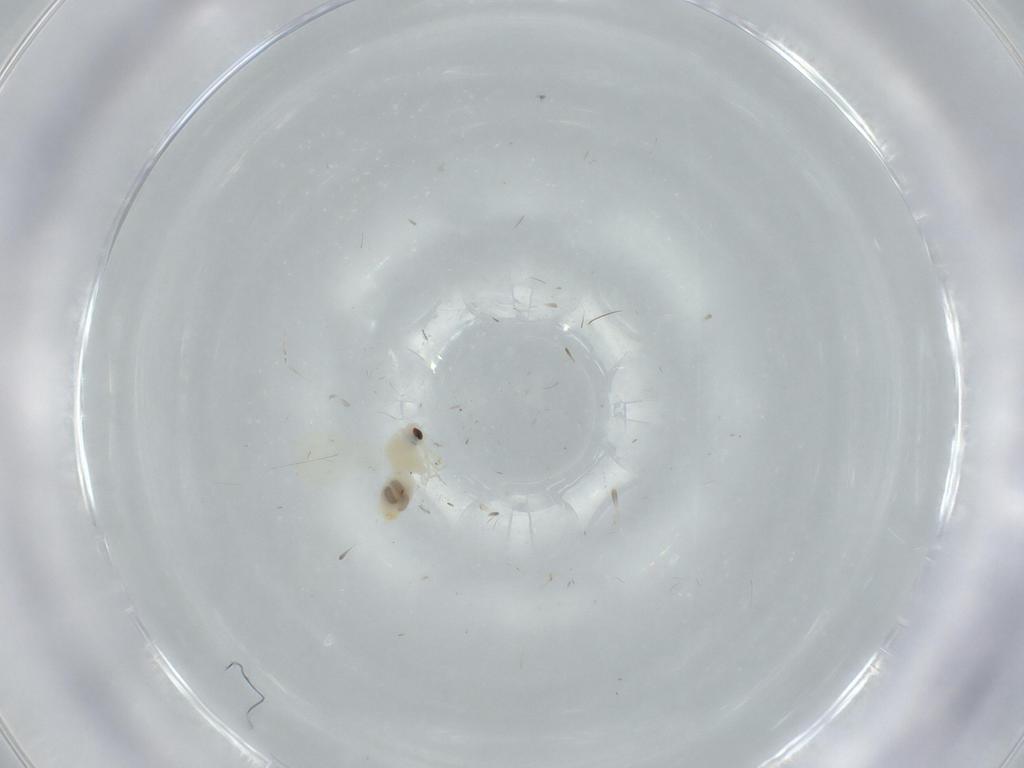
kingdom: Animalia
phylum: Arthropoda
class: Insecta
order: Hemiptera
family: Aleyrodidae
